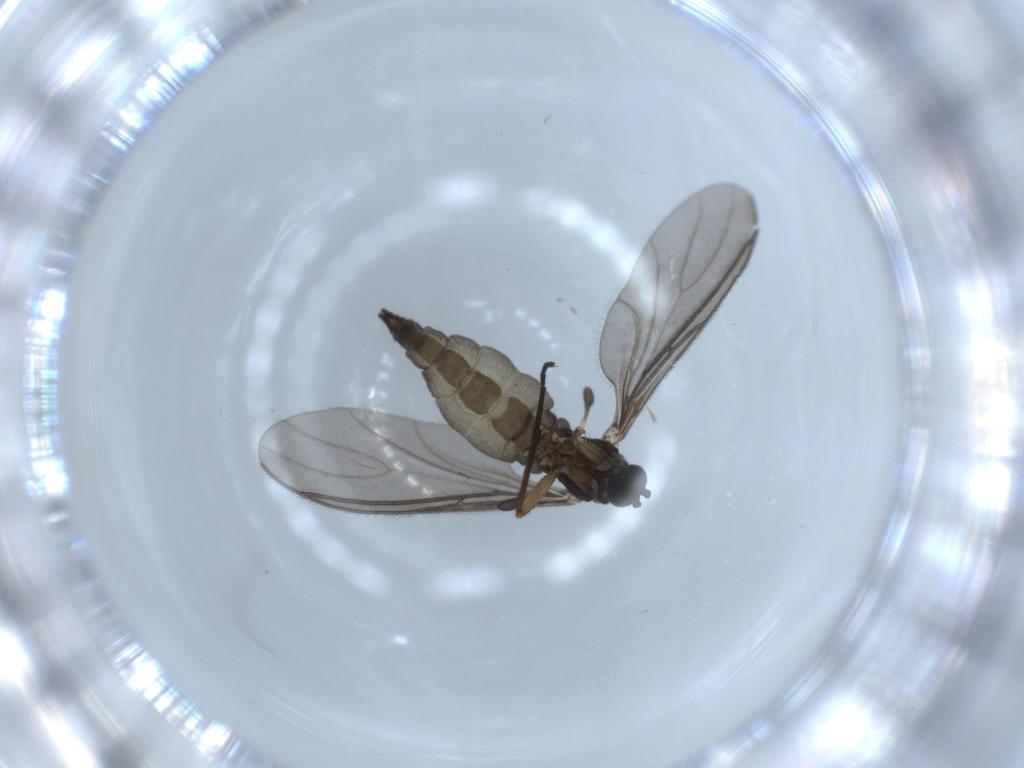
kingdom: Animalia
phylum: Arthropoda
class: Insecta
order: Diptera
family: Sciaridae
